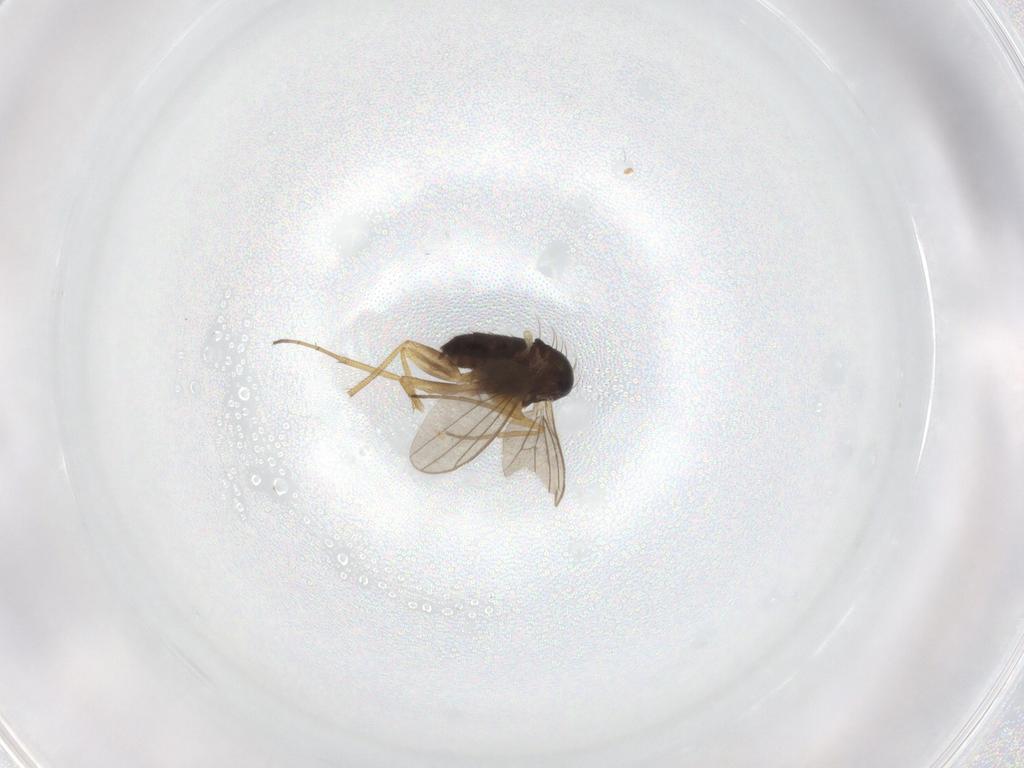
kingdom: Animalia
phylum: Arthropoda
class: Insecta
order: Diptera
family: Dolichopodidae
